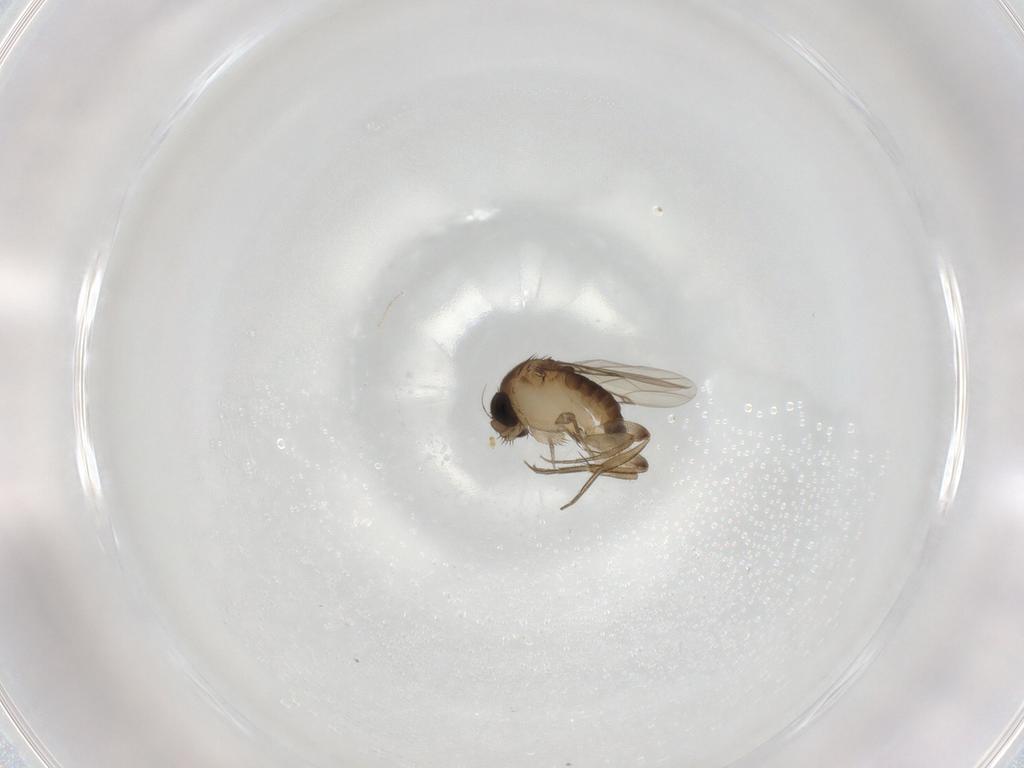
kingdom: Animalia
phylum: Arthropoda
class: Insecta
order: Diptera
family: Phoridae
